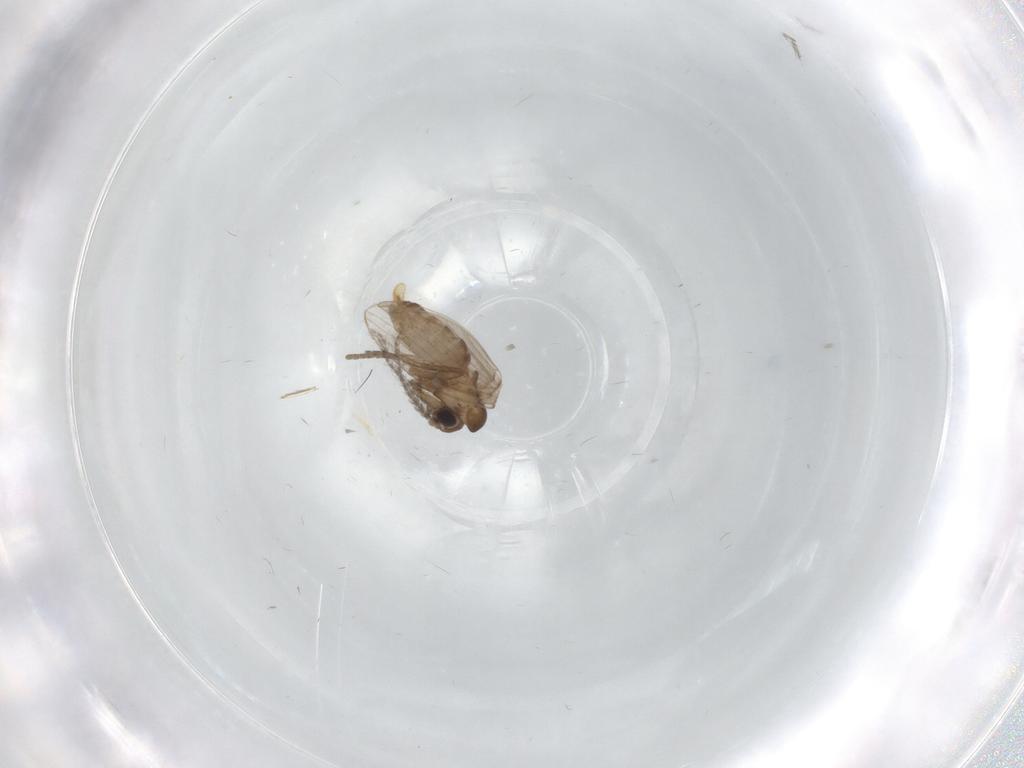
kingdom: Animalia
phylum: Arthropoda
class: Insecta
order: Diptera
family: Chironomidae
